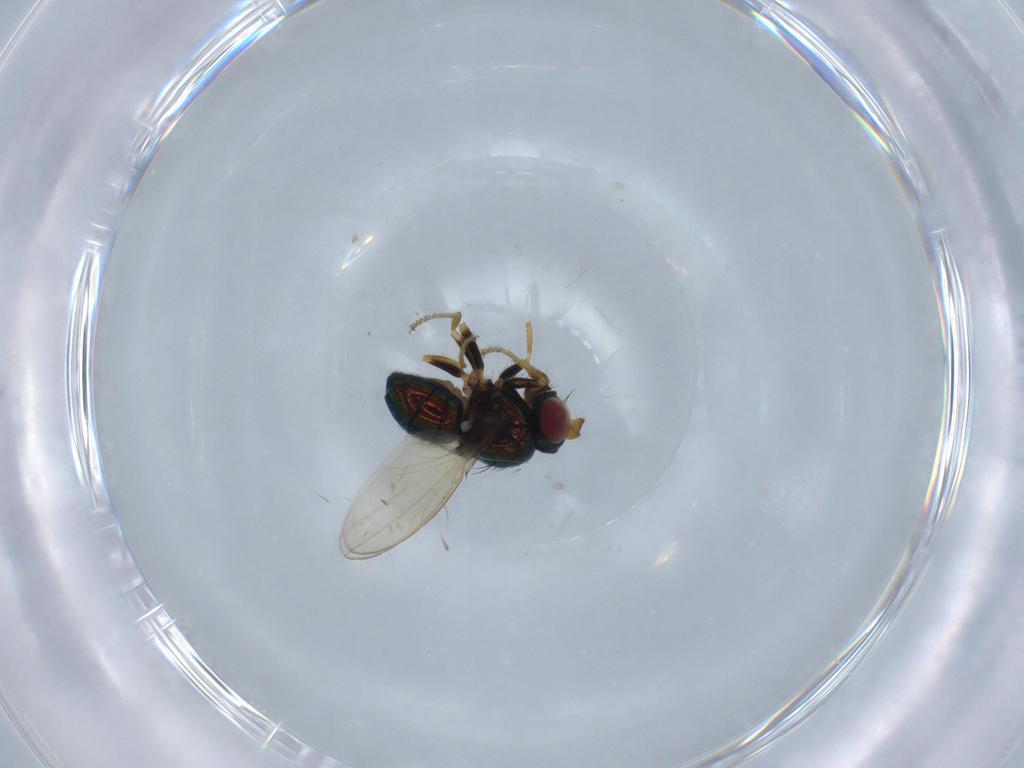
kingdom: Animalia
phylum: Arthropoda
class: Insecta
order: Diptera
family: Ephydridae
